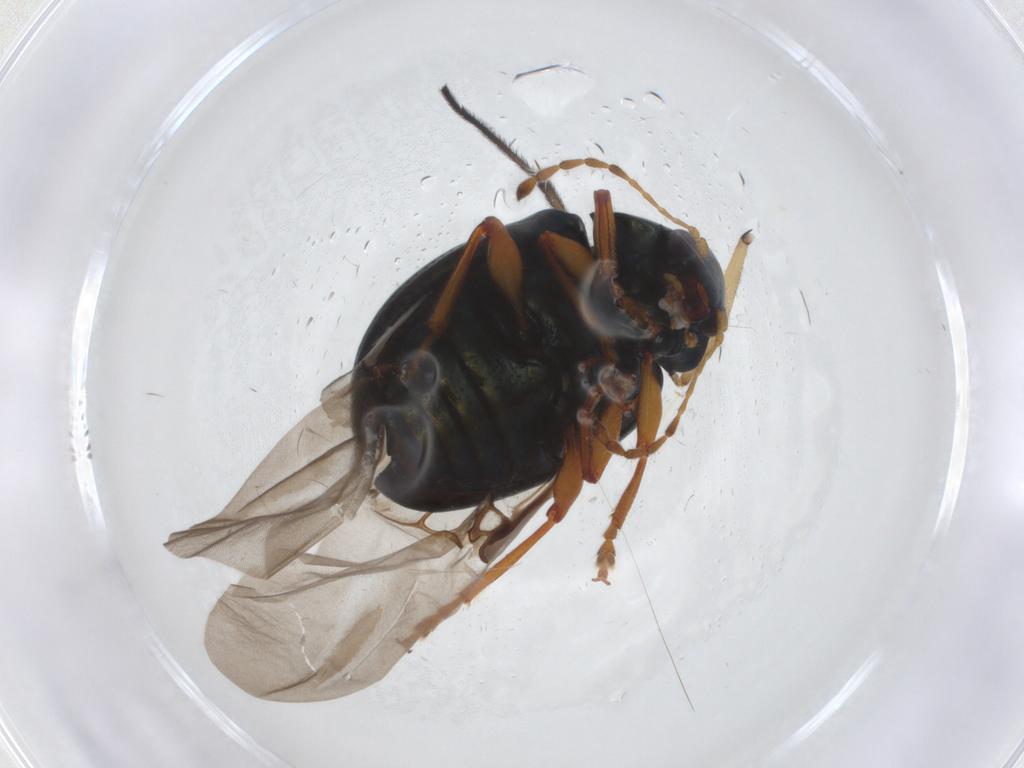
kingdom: Animalia
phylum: Arthropoda
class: Insecta
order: Coleoptera
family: Chrysomelidae
